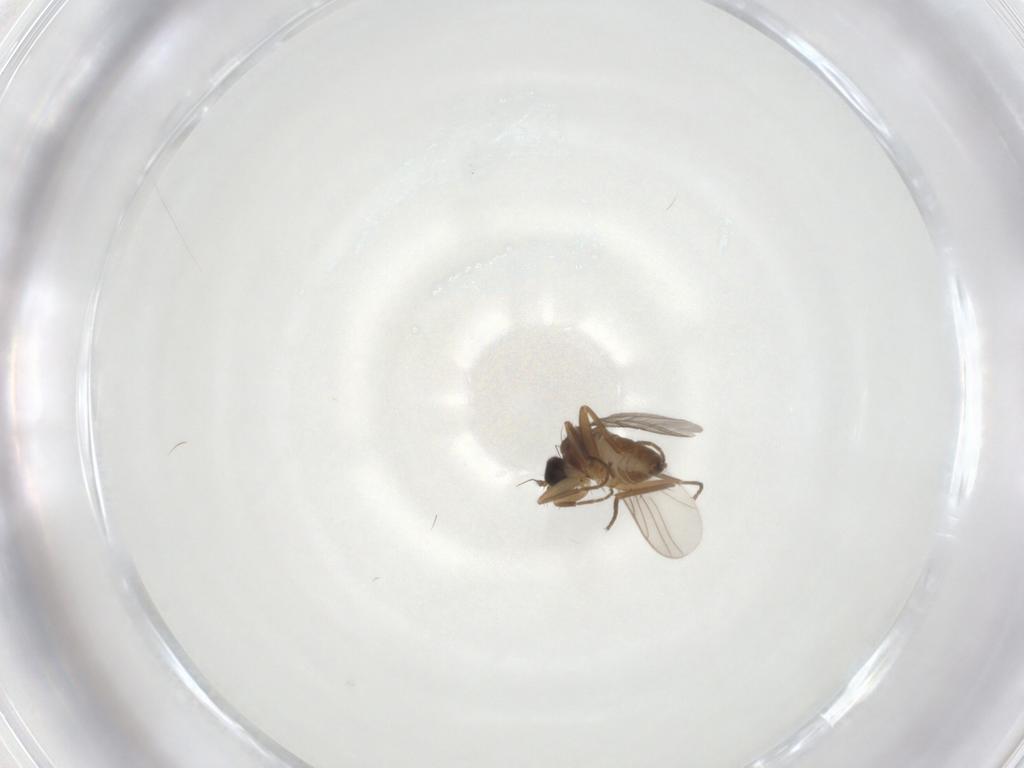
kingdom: Animalia
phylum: Arthropoda
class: Insecta
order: Diptera
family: Hybotidae
